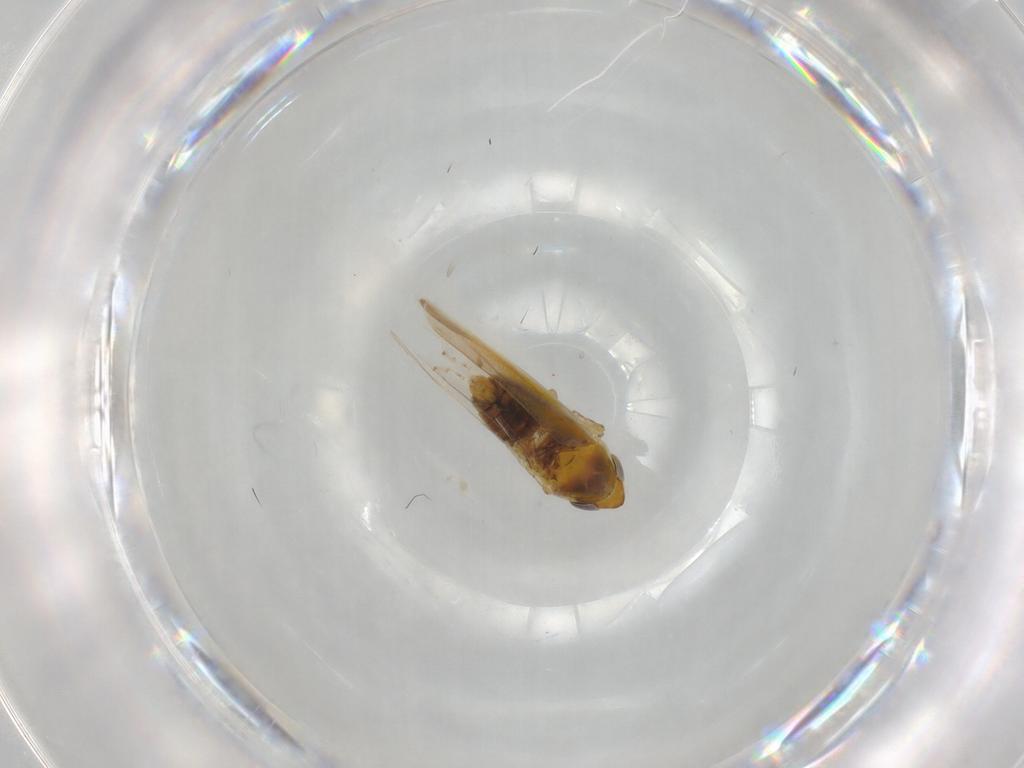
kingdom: Animalia
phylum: Arthropoda
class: Insecta
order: Hemiptera
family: Cicadellidae
